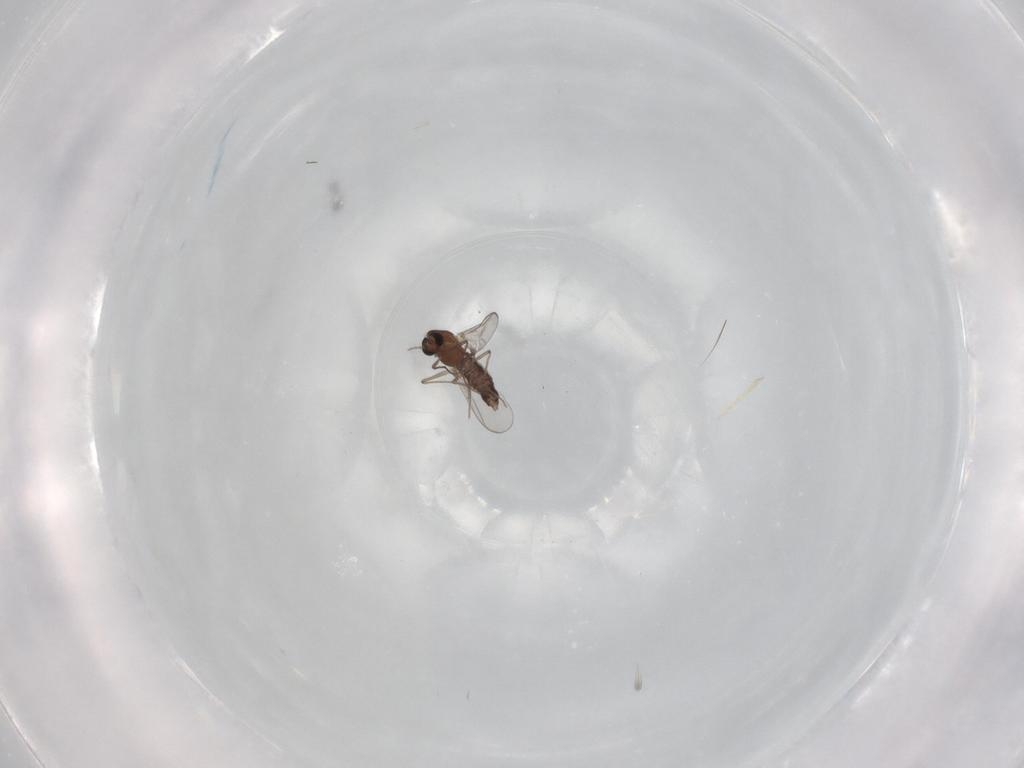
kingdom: Animalia
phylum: Arthropoda
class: Insecta
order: Diptera
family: Chironomidae
